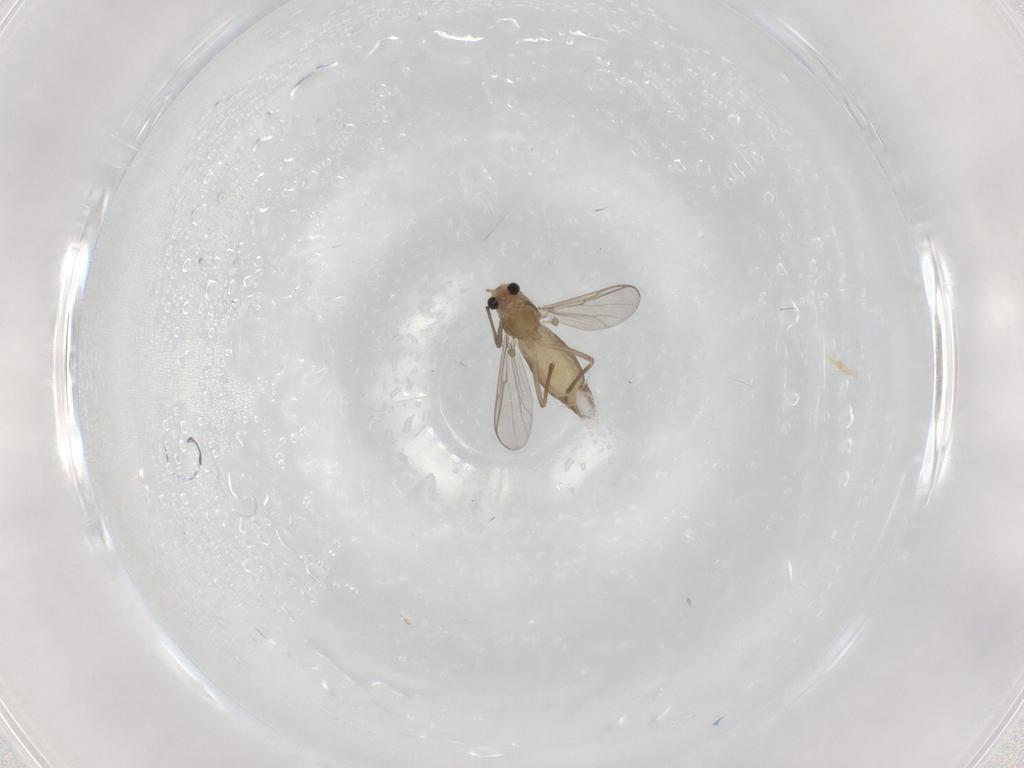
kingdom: Animalia
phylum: Arthropoda
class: Insecta
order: Diptera
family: Chironomidae
